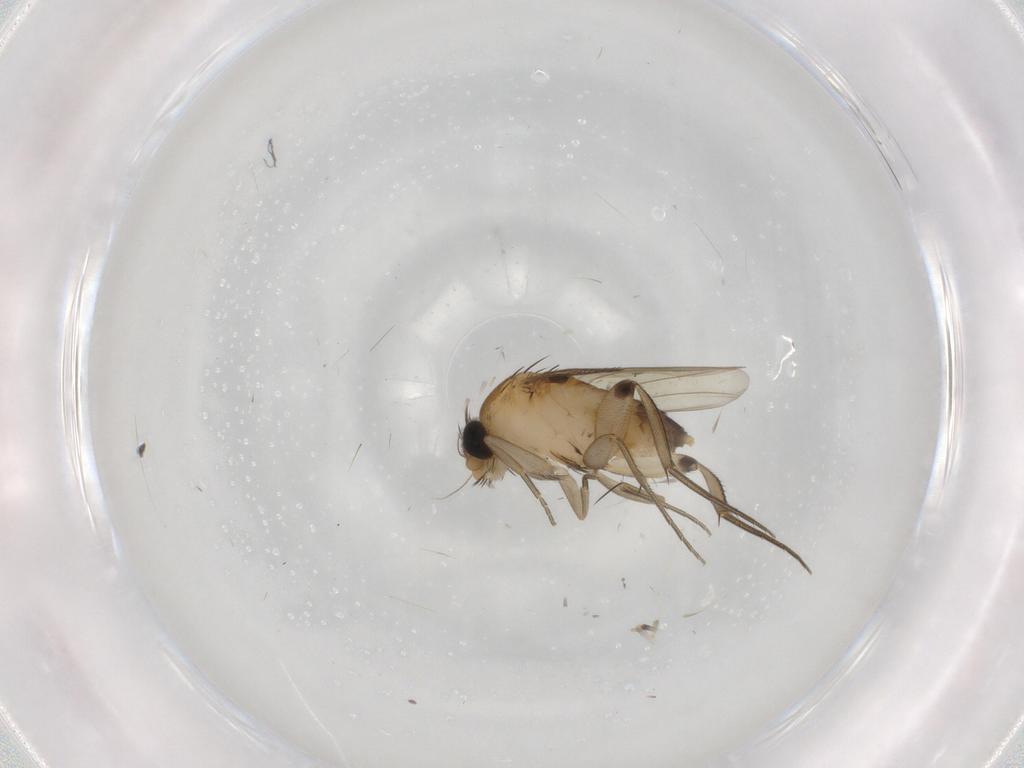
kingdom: Animalia
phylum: Arthropoda
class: Insecta
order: Diptera
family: Phoridae
